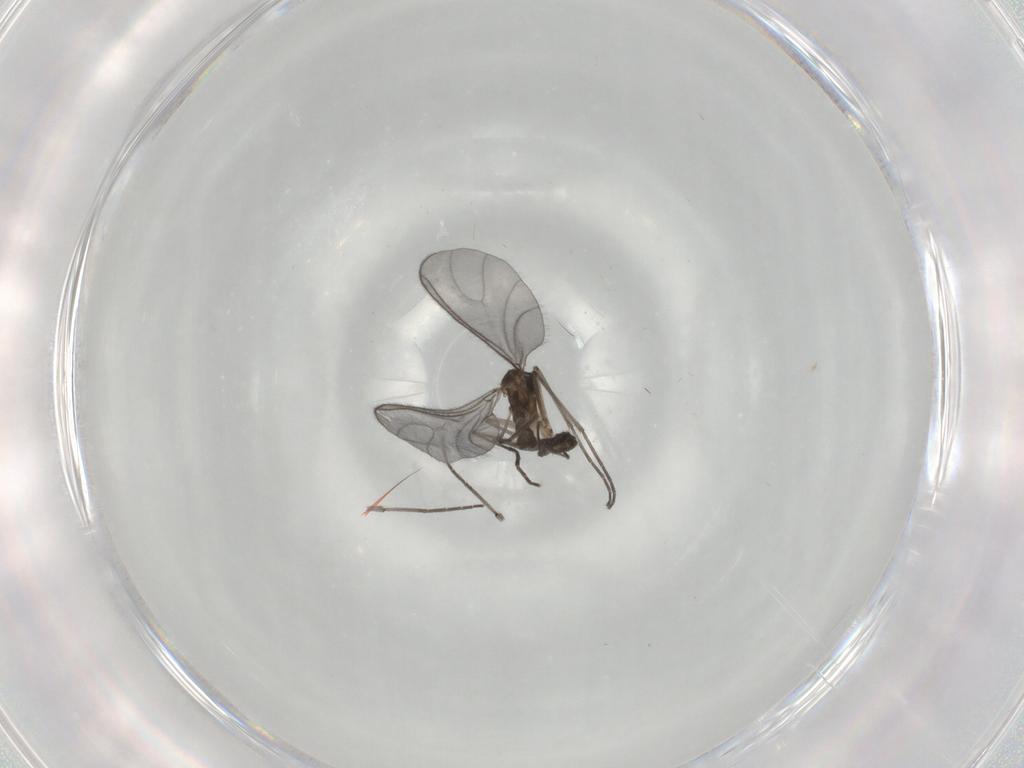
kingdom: Animalia
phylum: Arthropoda
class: Insecta
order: Diptera
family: Sciaridae
